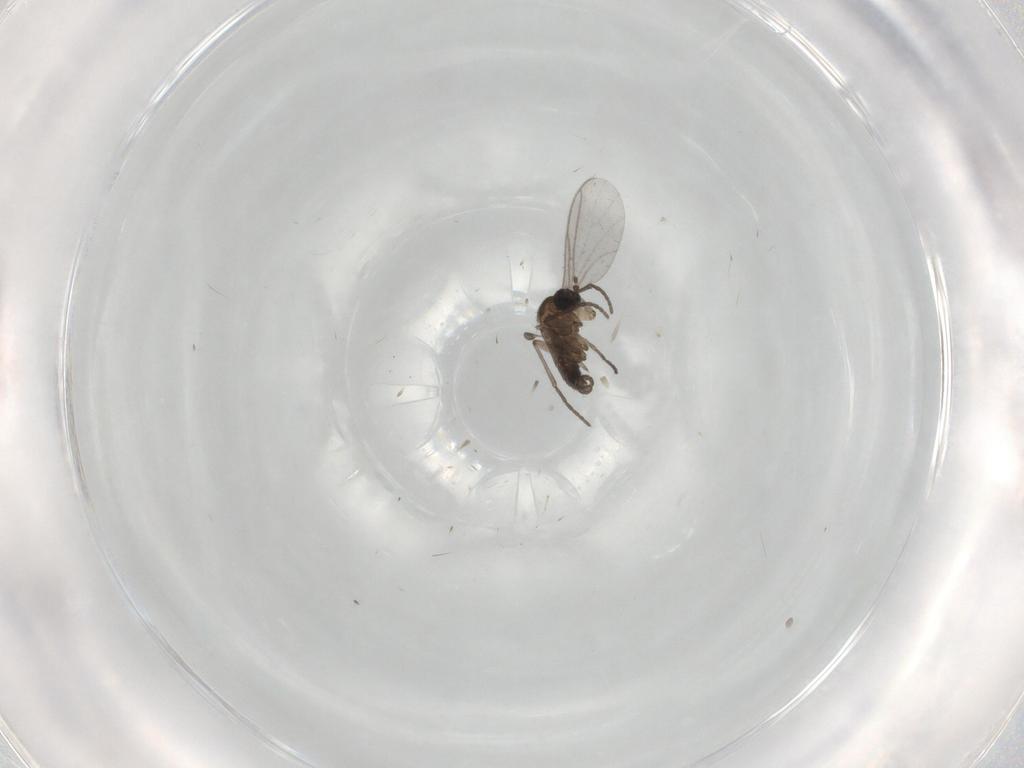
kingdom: Animalia
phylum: Arthropoda
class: Insecta
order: Diptera
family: Cecidomyiidae
